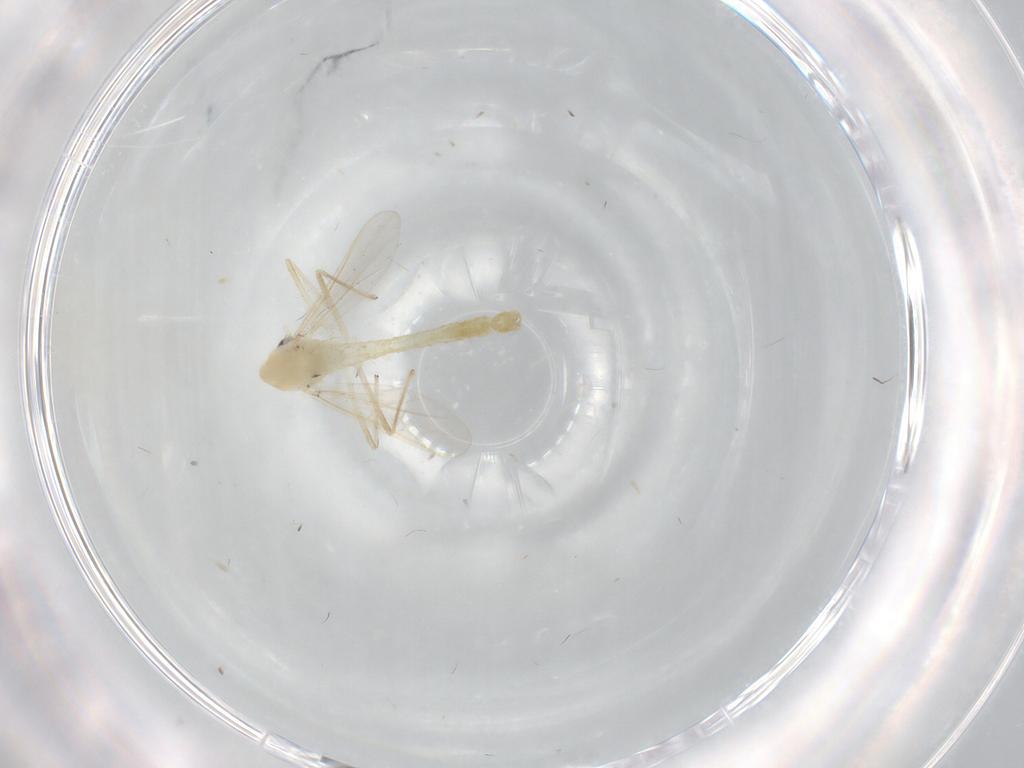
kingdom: Animalia
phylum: Arthropoda
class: Insecta
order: Diptera
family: Chironomidae
